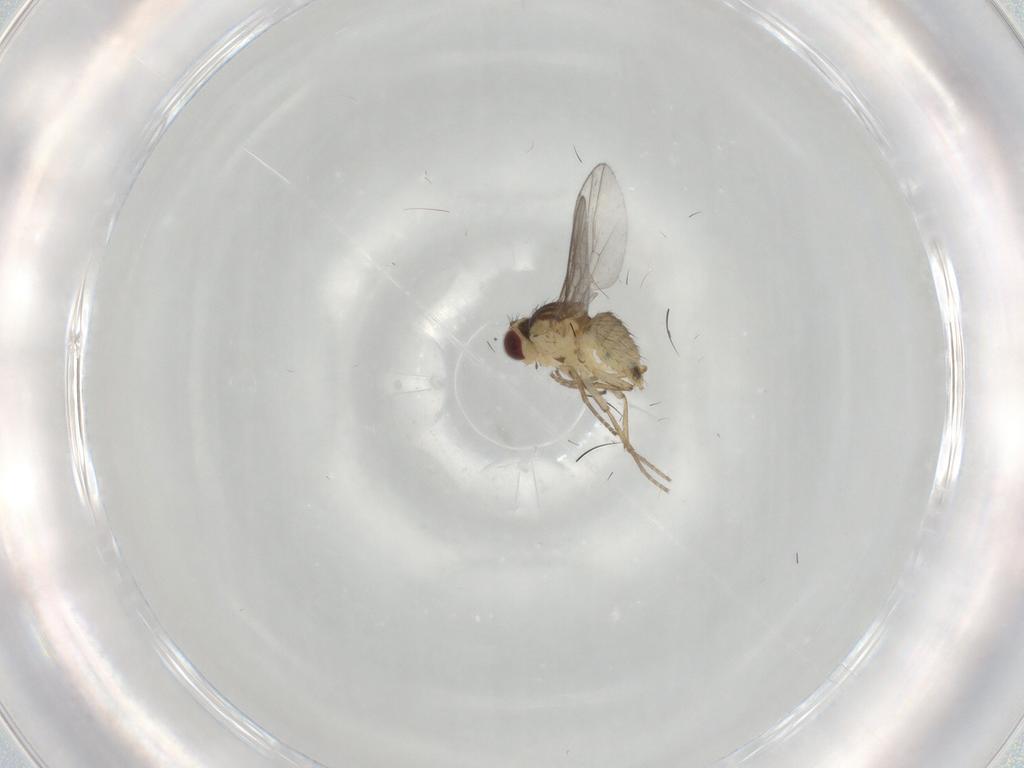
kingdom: Animalia
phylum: Arthropoda
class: Insecta
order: Diptera
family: Agromyzidae
